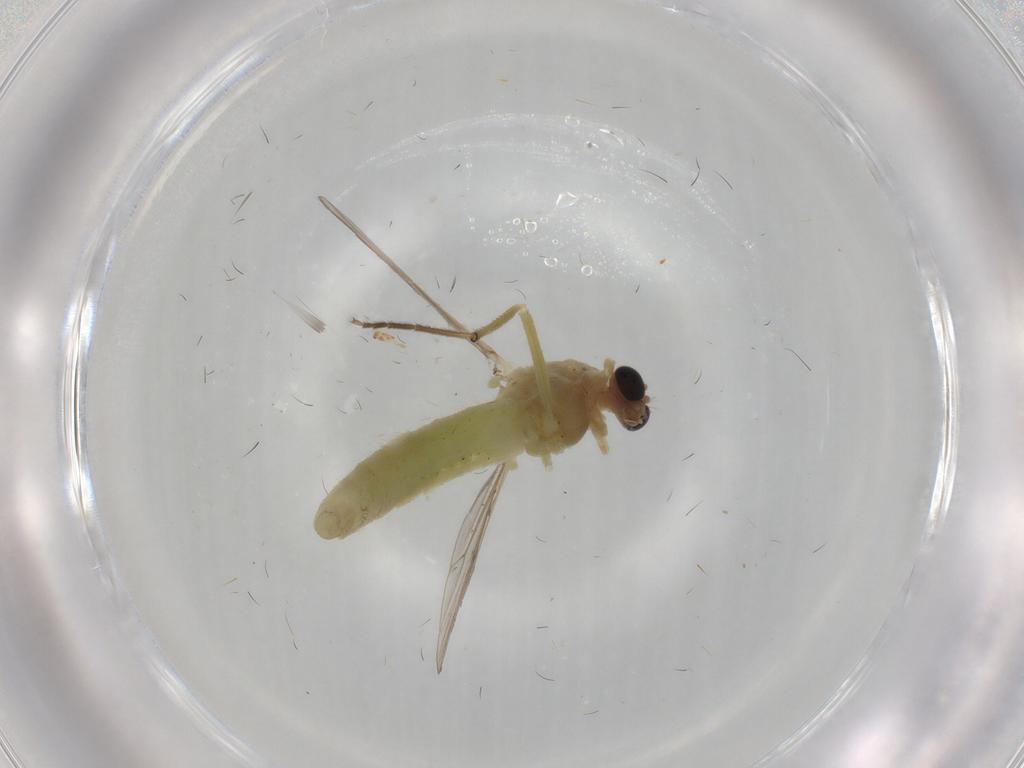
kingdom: Animalia
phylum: Arthropoda
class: Insecta
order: Diptera
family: Chironomidae
